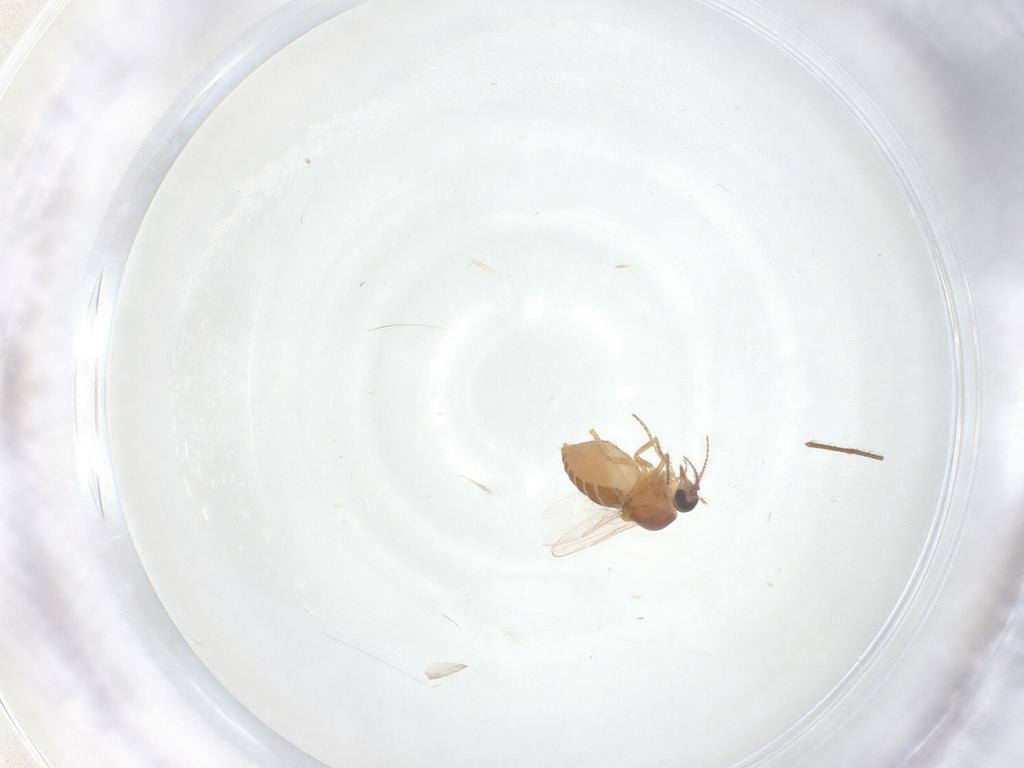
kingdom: Animalia
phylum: Arthropoda
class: Insecta
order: Diptera
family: Ceratopogonidae
